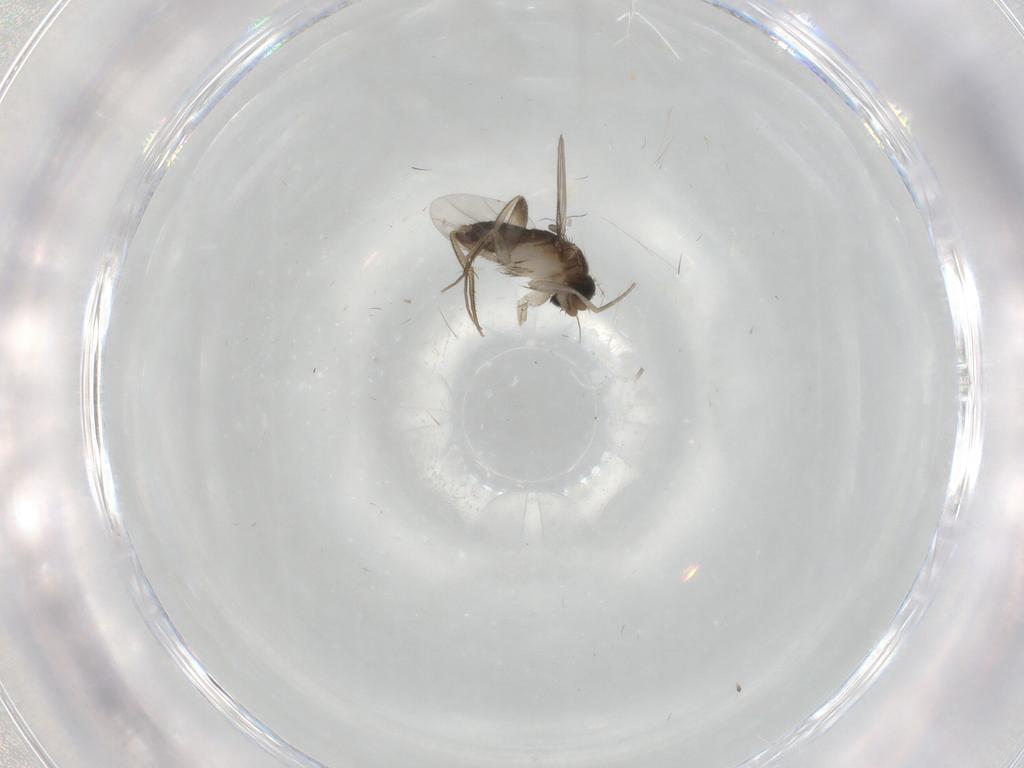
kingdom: Animalia
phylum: Arthropoda
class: Insecta
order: Diptera
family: Phoridae
